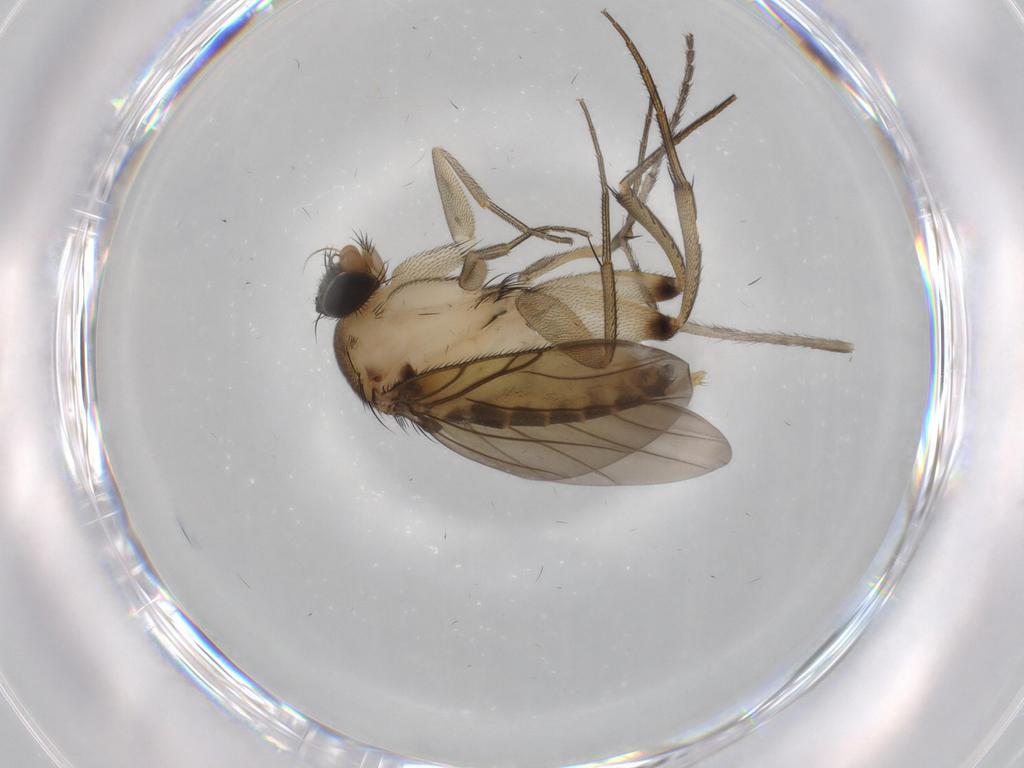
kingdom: Animalia
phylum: Arthropoda
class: Insecta
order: Diptera
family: Limoniidae
